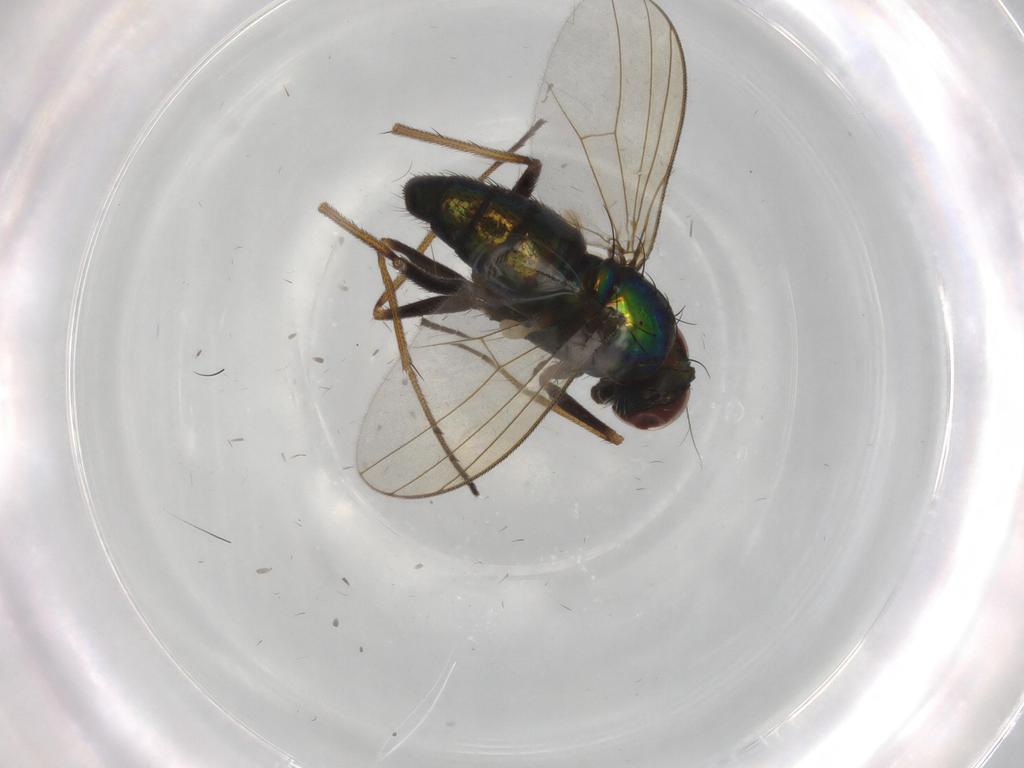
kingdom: Animalia
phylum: Arthropoda
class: Insecta
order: Diptera
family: Dolichopodidae
